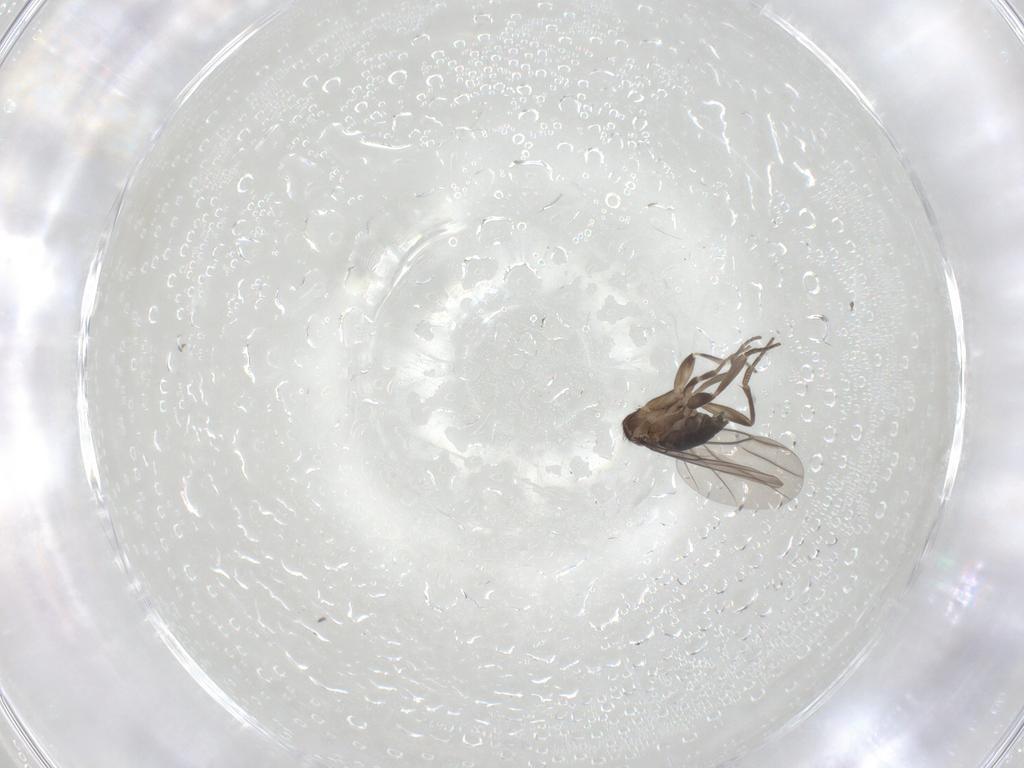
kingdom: Animalia
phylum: Arthropoda
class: Insecta
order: Diptera
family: Phoridae
